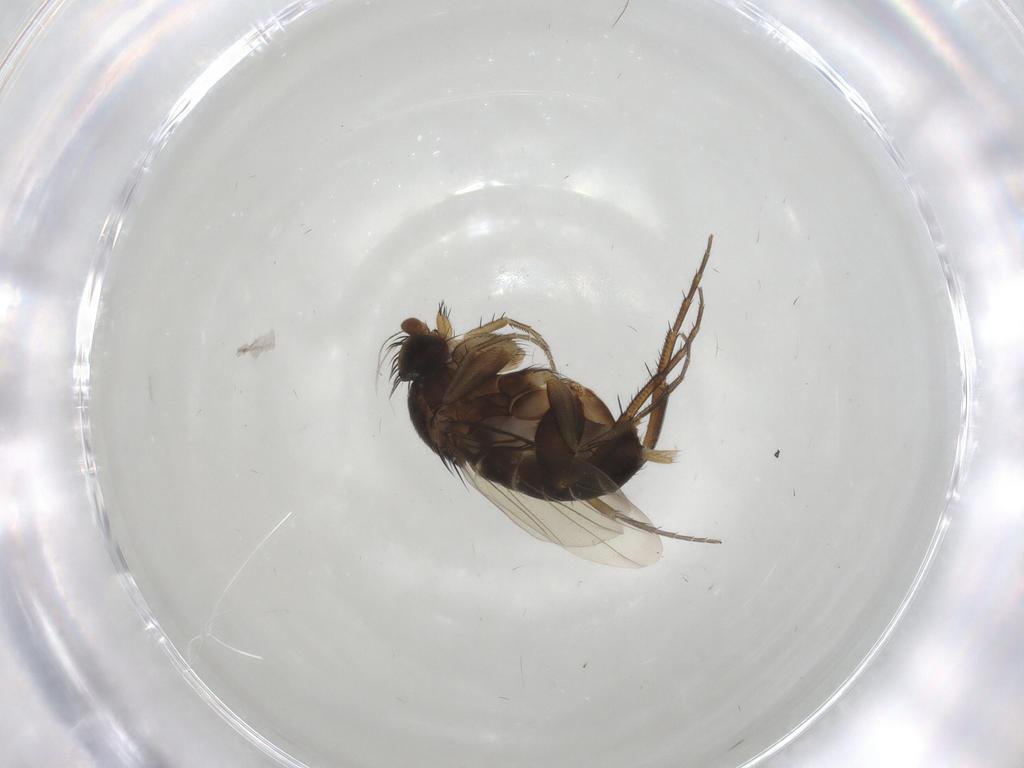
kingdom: Animalia
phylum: Arthropoda
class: Insecta
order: Diptera
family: Phoridae
